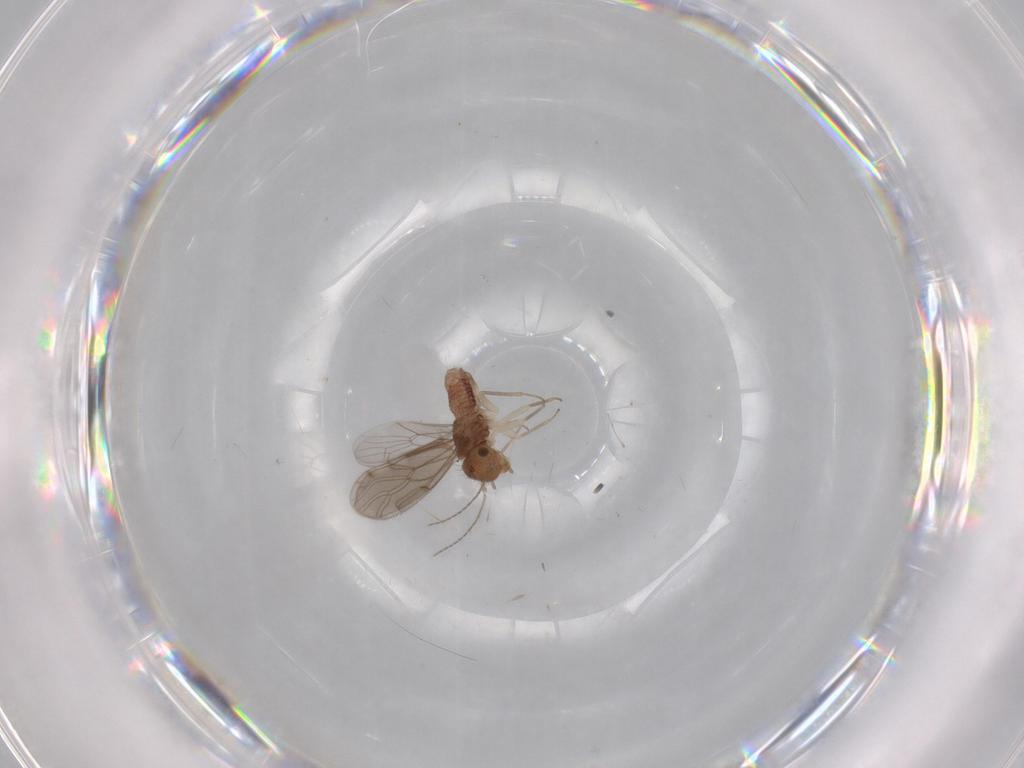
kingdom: Animalia
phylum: Arthropoda
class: Insecta
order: Psocodea
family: Ectopsocidae
